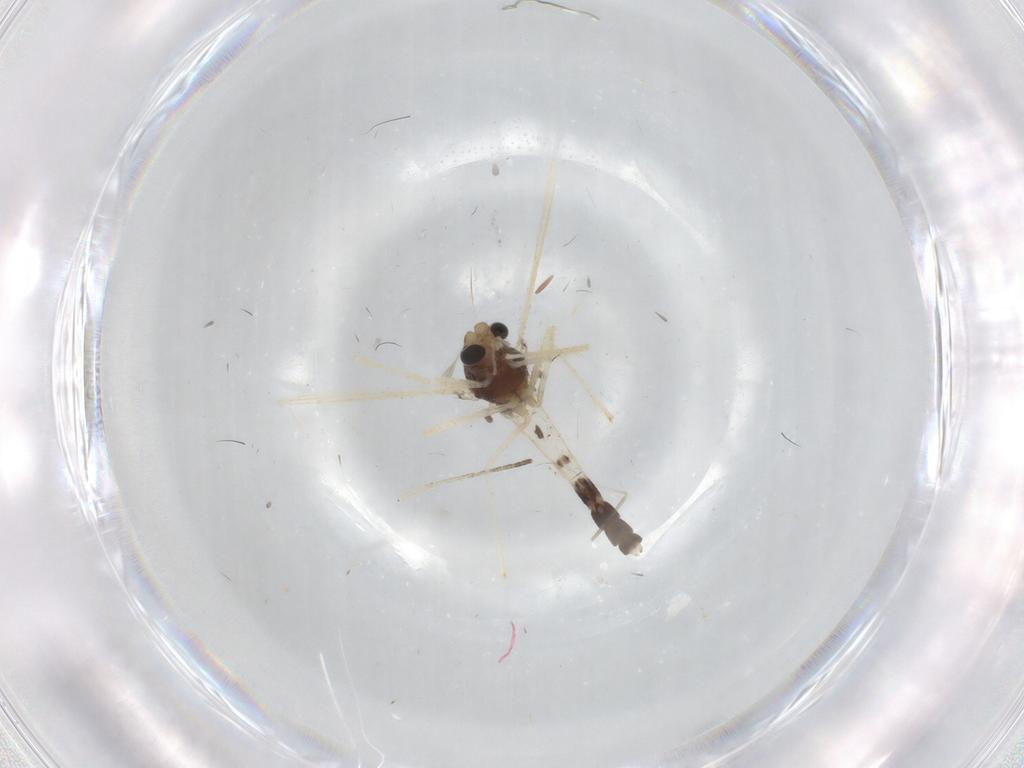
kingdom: Animalia
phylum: Arthropoda
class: Insecta
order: Diptera
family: Chironomidae
